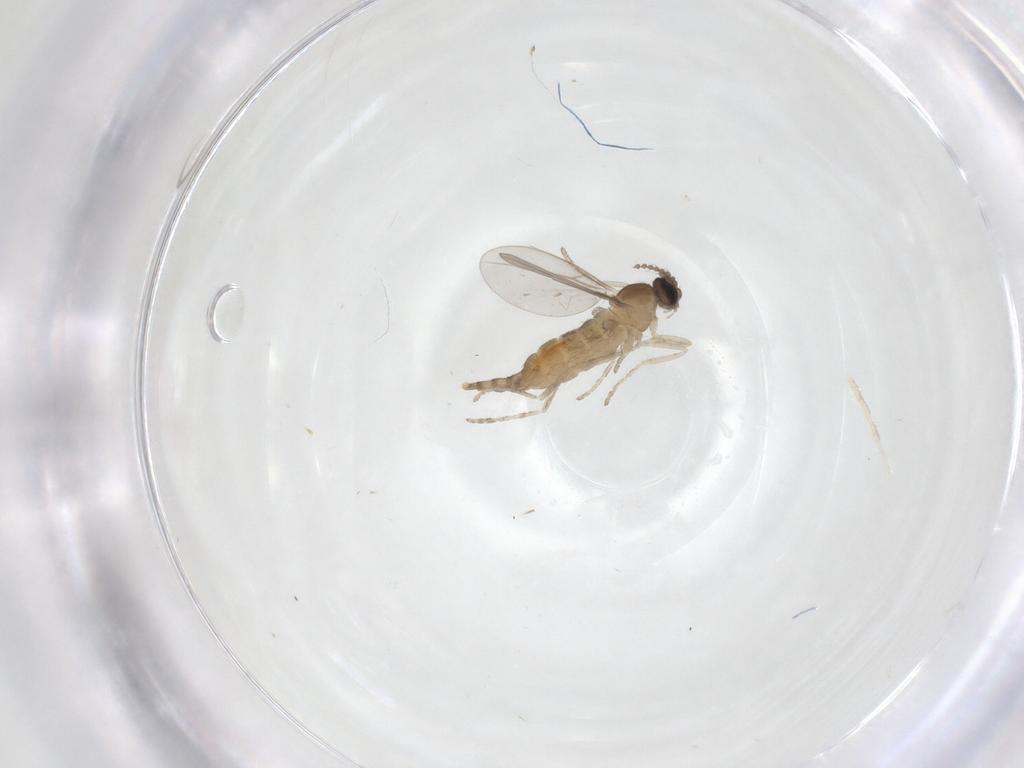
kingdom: Animalia
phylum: Arthropoda
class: Insecta
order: Diptera
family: Cecidomyiidae
